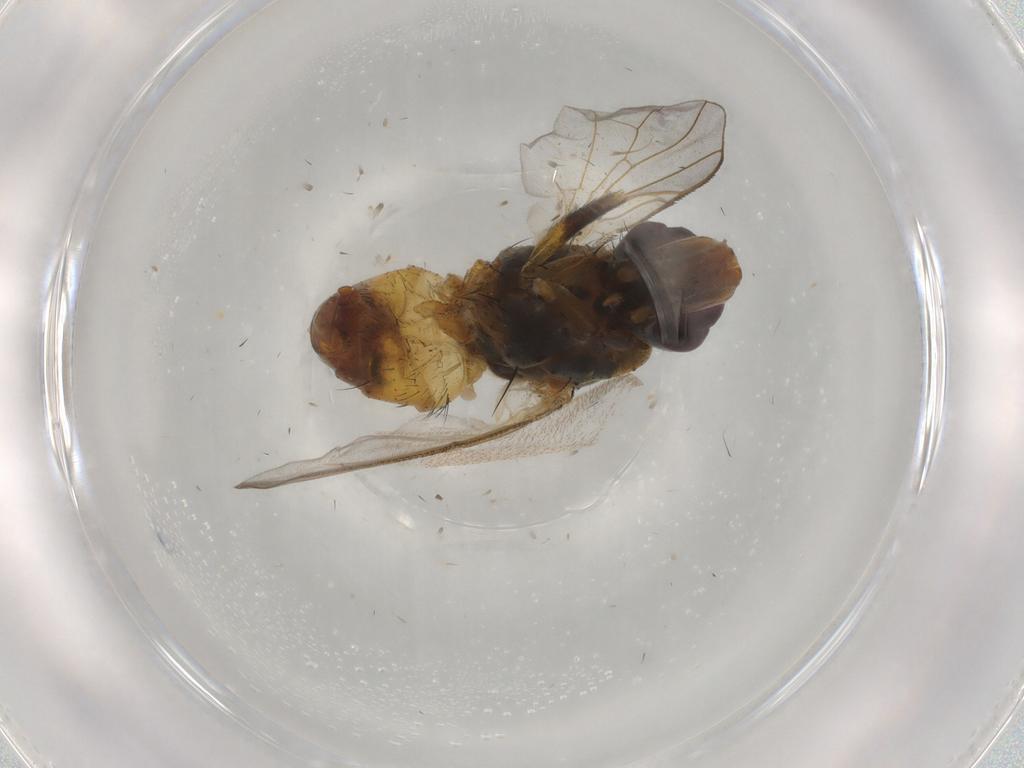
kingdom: Animalia
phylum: Arthropoda
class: Insecta
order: Diptera
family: Muscidae
